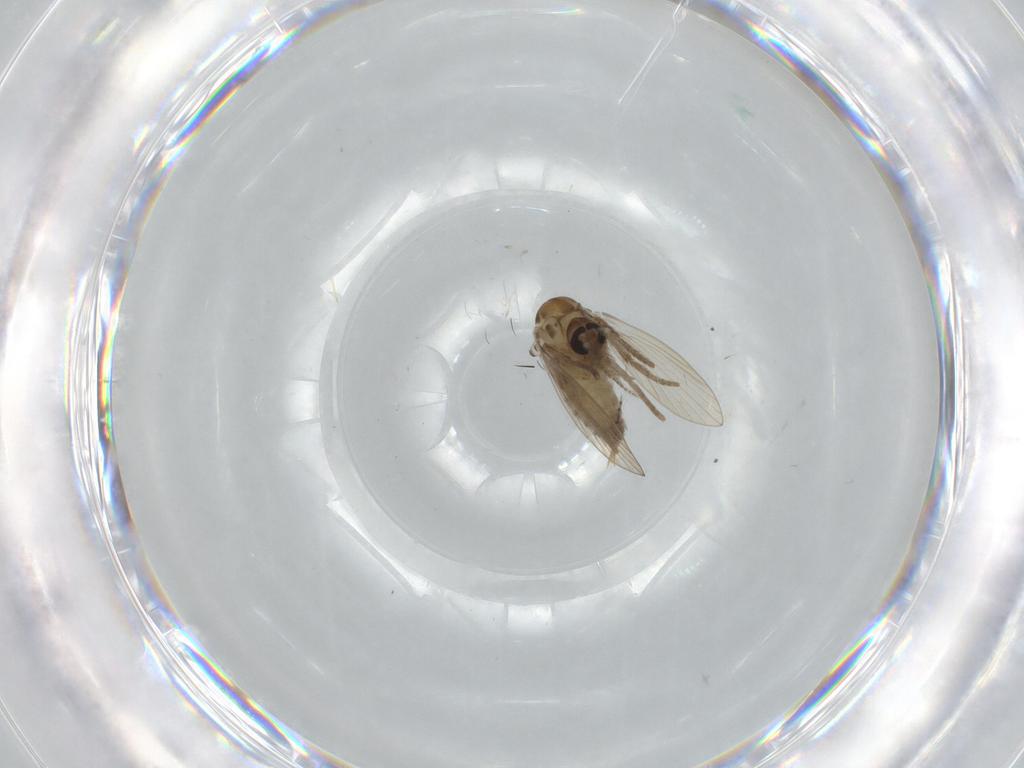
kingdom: Animalia
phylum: Arthropoda
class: Insecta
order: Diptera
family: Psychodidae
